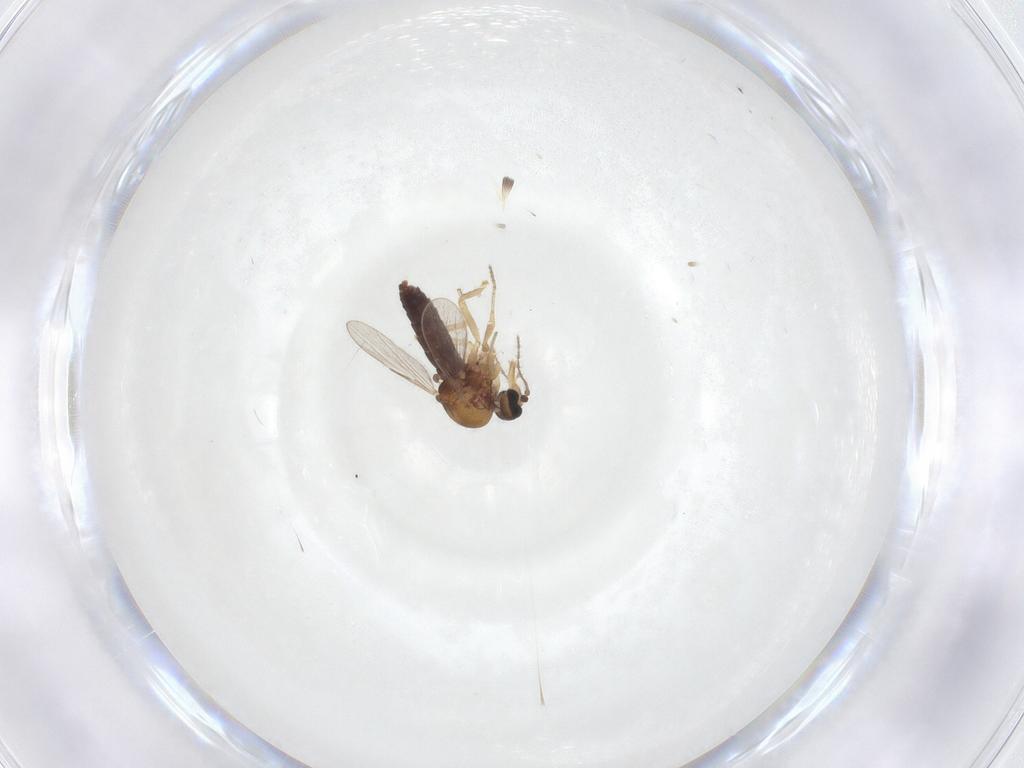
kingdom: Animalia
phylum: Arthropoda
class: Insecta
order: Diptera
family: Ceratopogonidae
